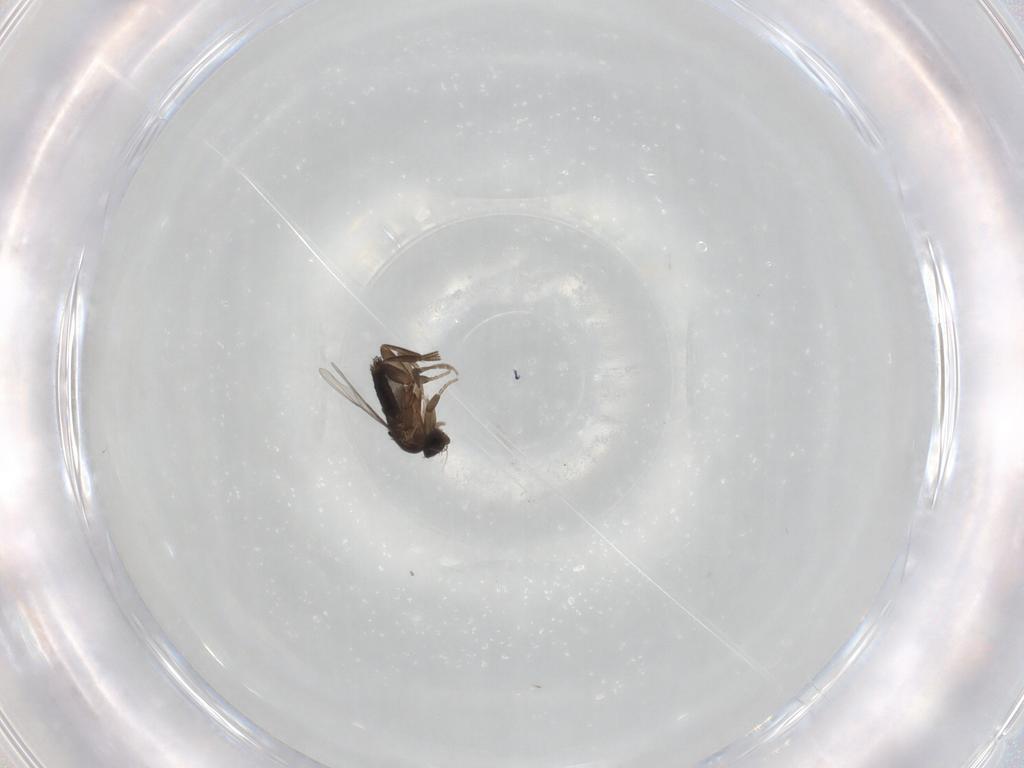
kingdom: Animalia
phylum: Arthropoda
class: Insecta
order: Diptera
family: Phoridae
